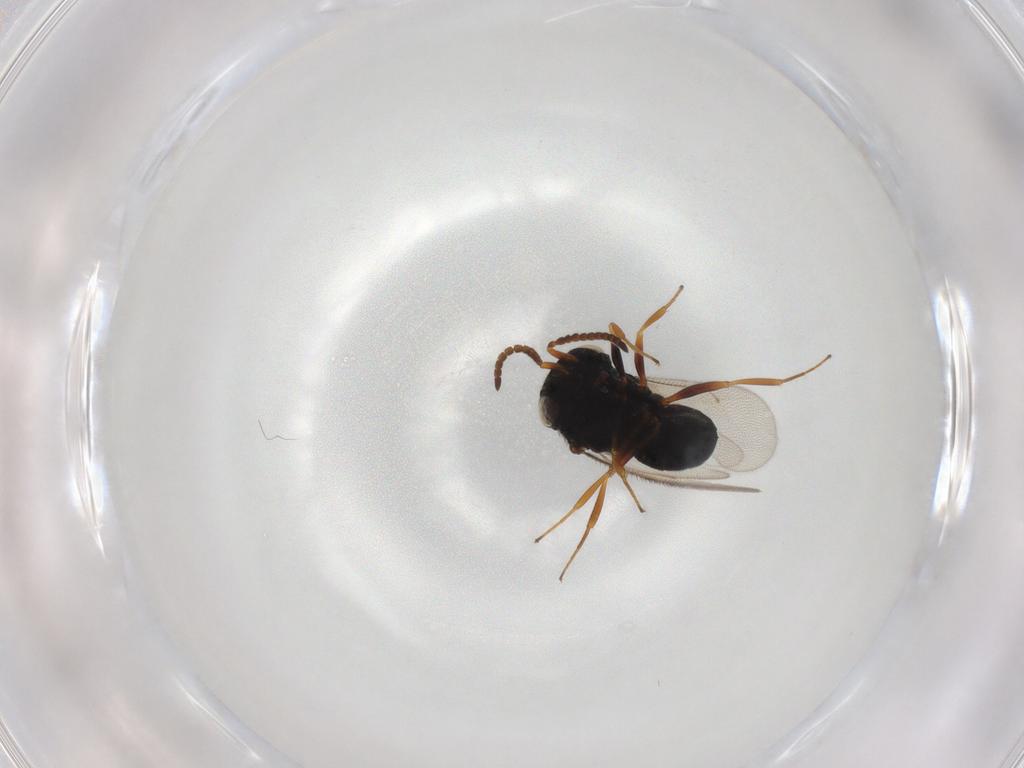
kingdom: Animalia
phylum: Arthropoda
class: Insecta
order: Hymenoptera
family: Scelionidae
